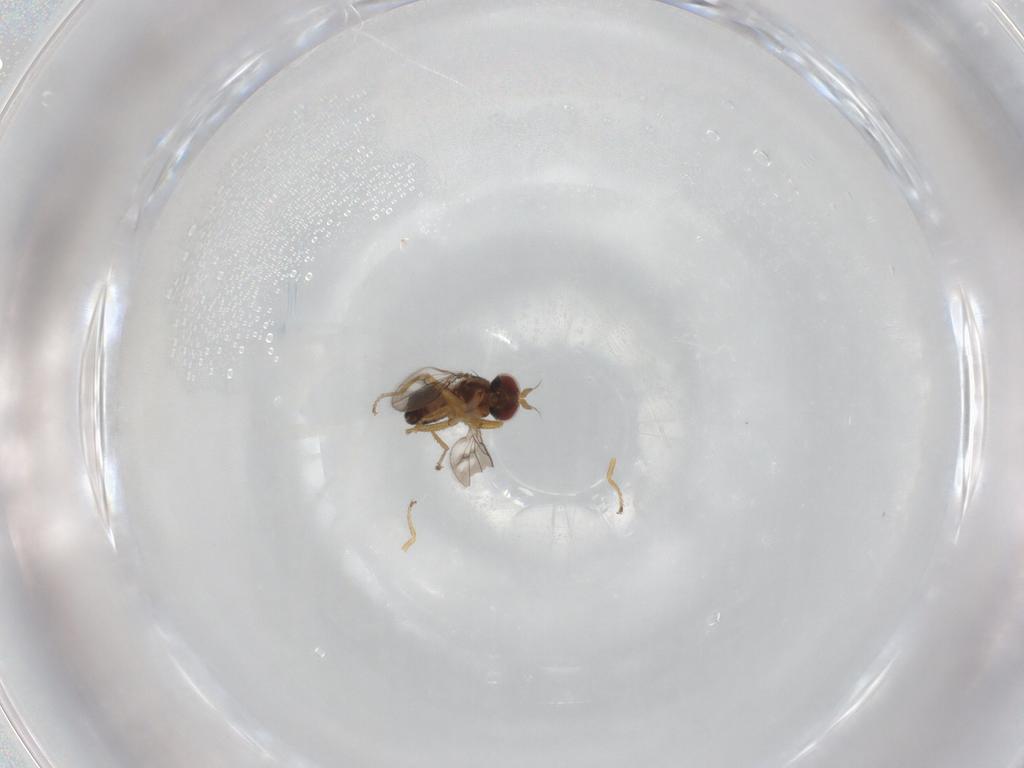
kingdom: Animalia
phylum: Arthropoda
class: Insecta
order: Diptera
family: Ephydridae
